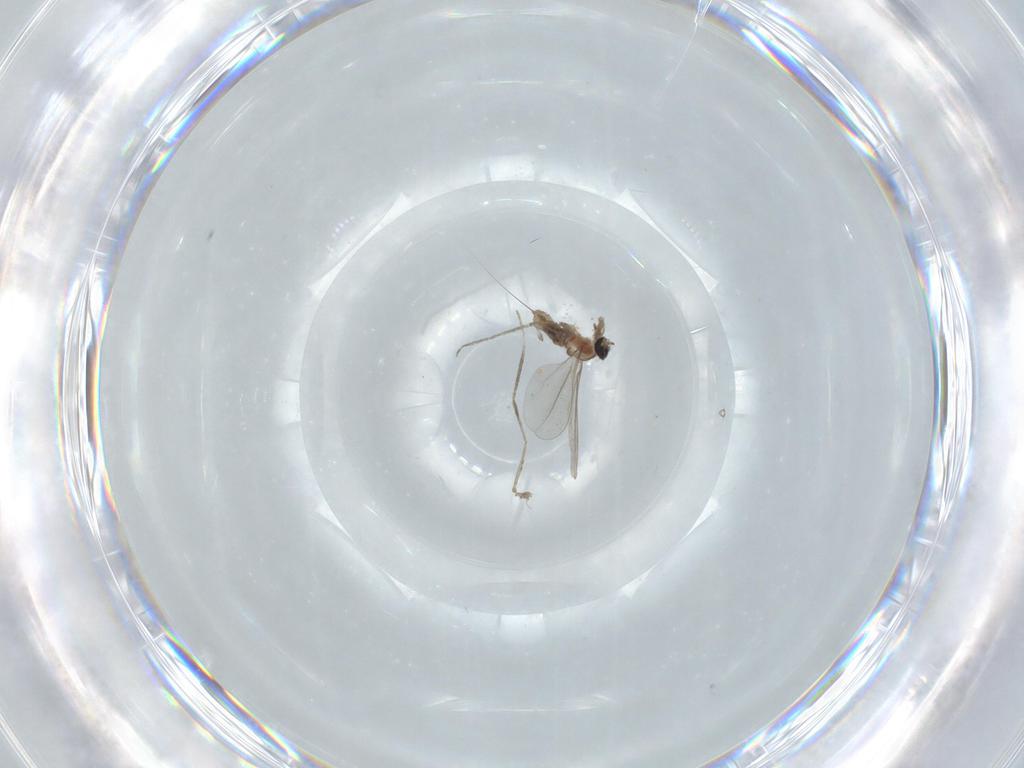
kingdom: Animalia
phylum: Arthropoda
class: Insecta
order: Diptera
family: Cecidomyiidae
